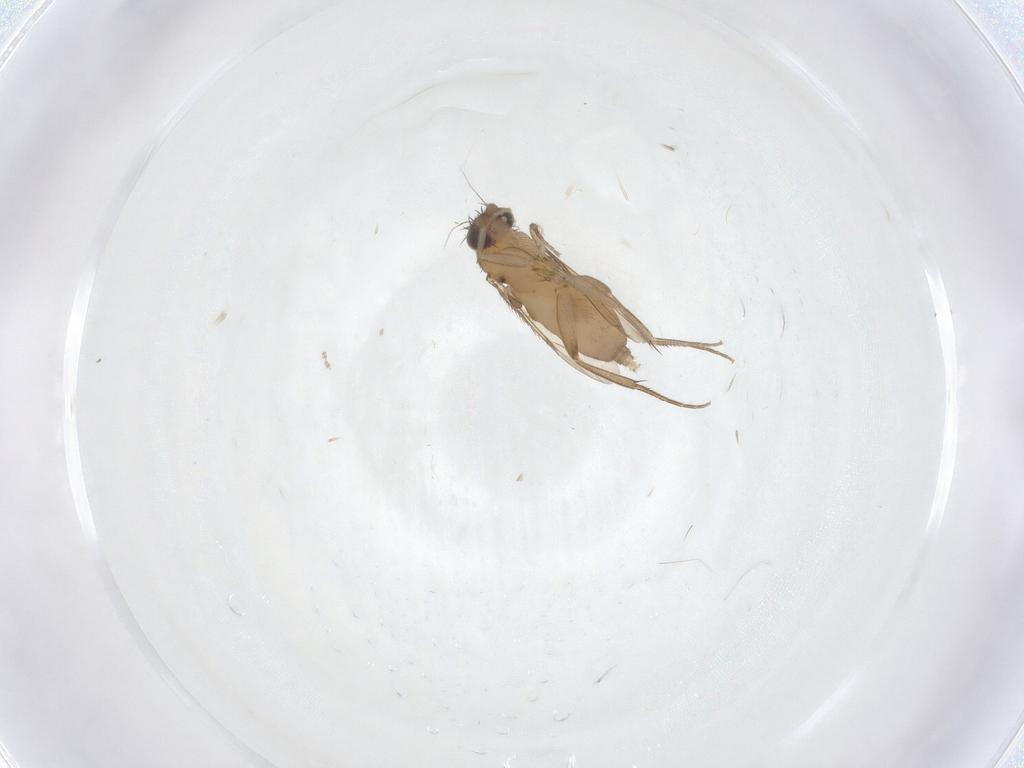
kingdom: Animalia
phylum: Arthropoda
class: Insecta
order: Diptera
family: Phoridae
